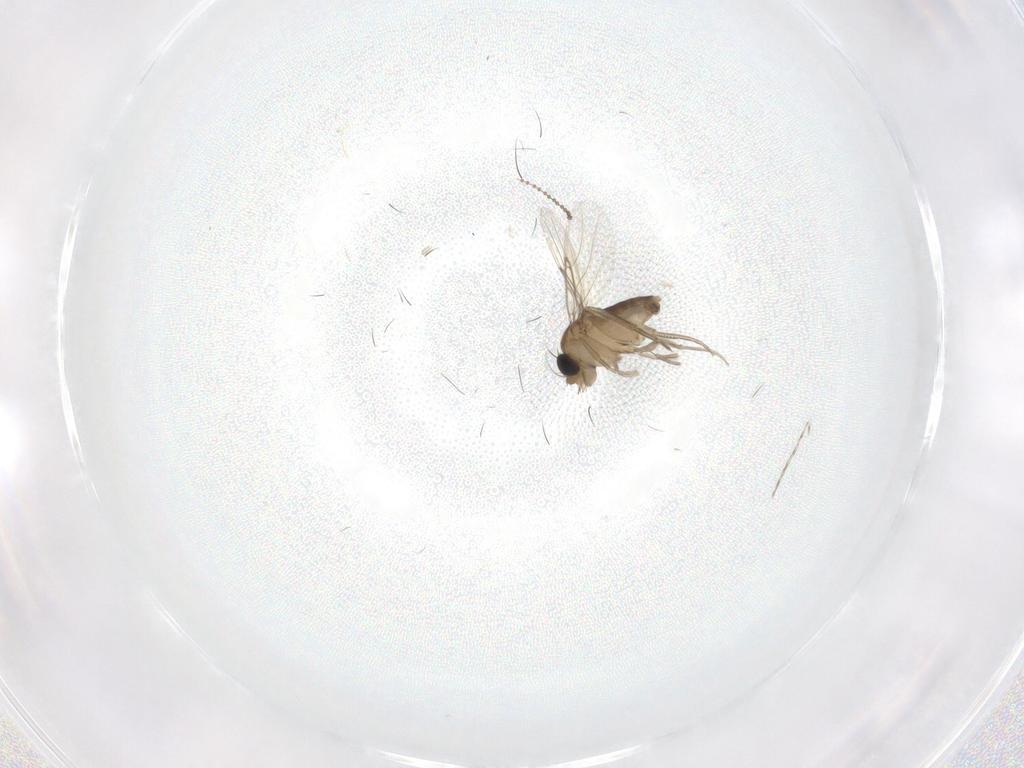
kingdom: Animalia
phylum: Arthropoda
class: Insecta
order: Diptera
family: Phoridae
